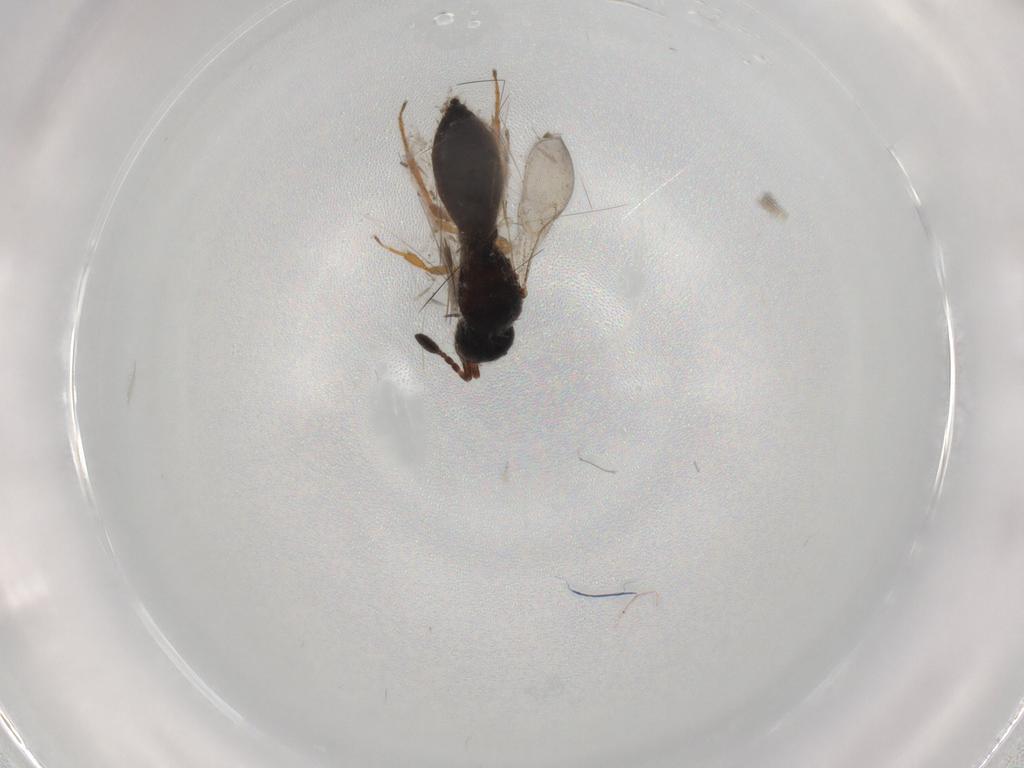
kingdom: Animalia
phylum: Arthropoda
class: Insecta
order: Hymenoptera
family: Scelionidae
